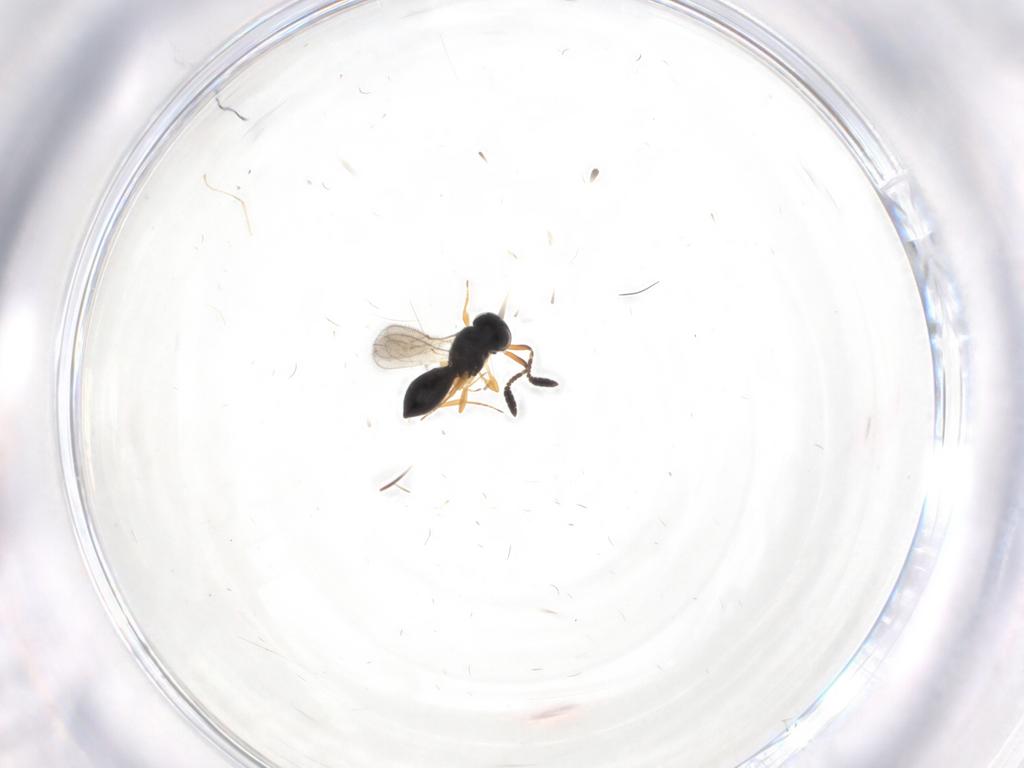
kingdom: Animalia
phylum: Arthropoda
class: Insecta
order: Hymenoptera
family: Scelionidae
